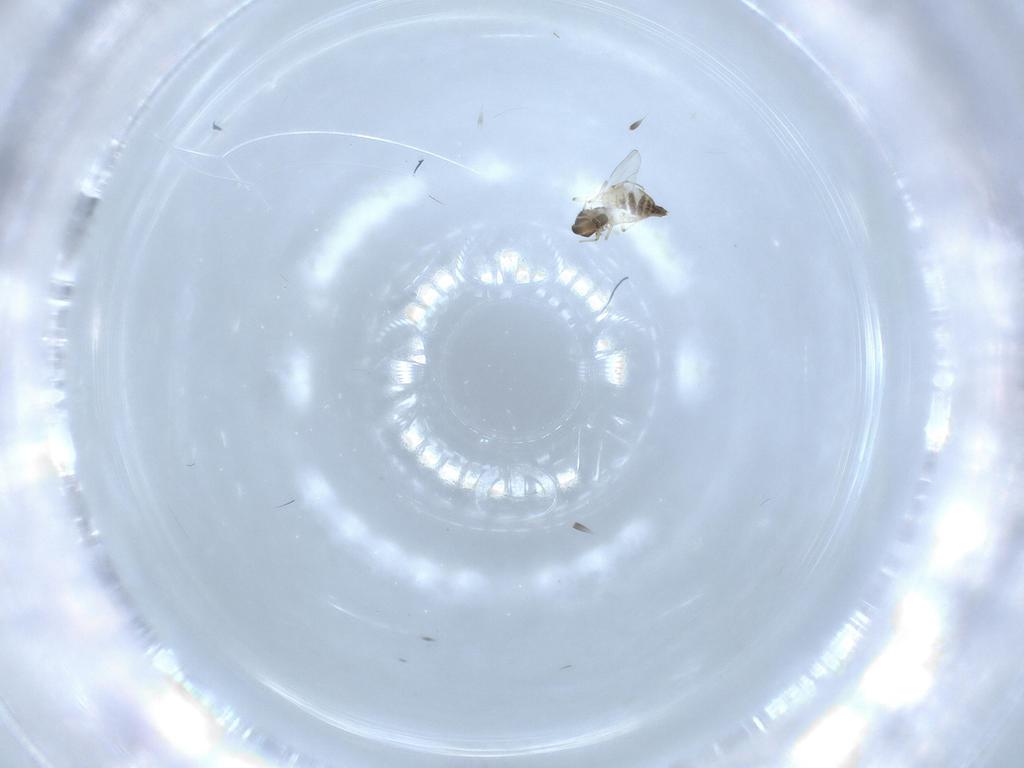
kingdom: Animalia
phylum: Arthropoda
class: Insecta
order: Diptera
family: Chironomidae
